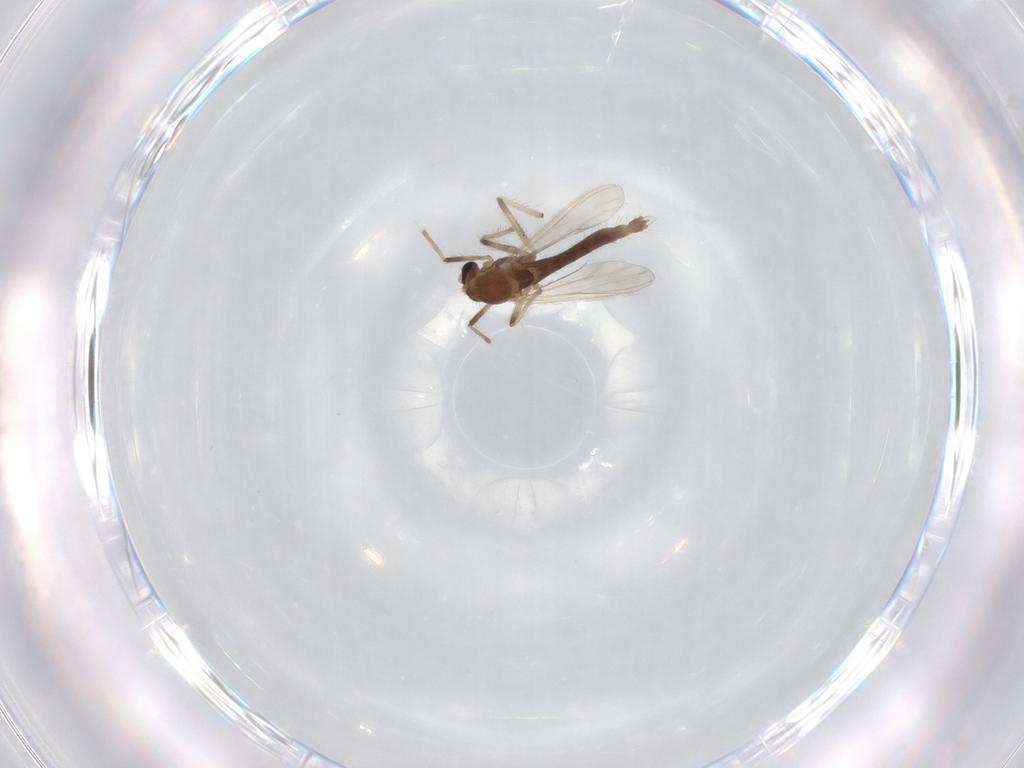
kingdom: Animalia
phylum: Arthropoda
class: Insecta
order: Diptera
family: Chironomidae
